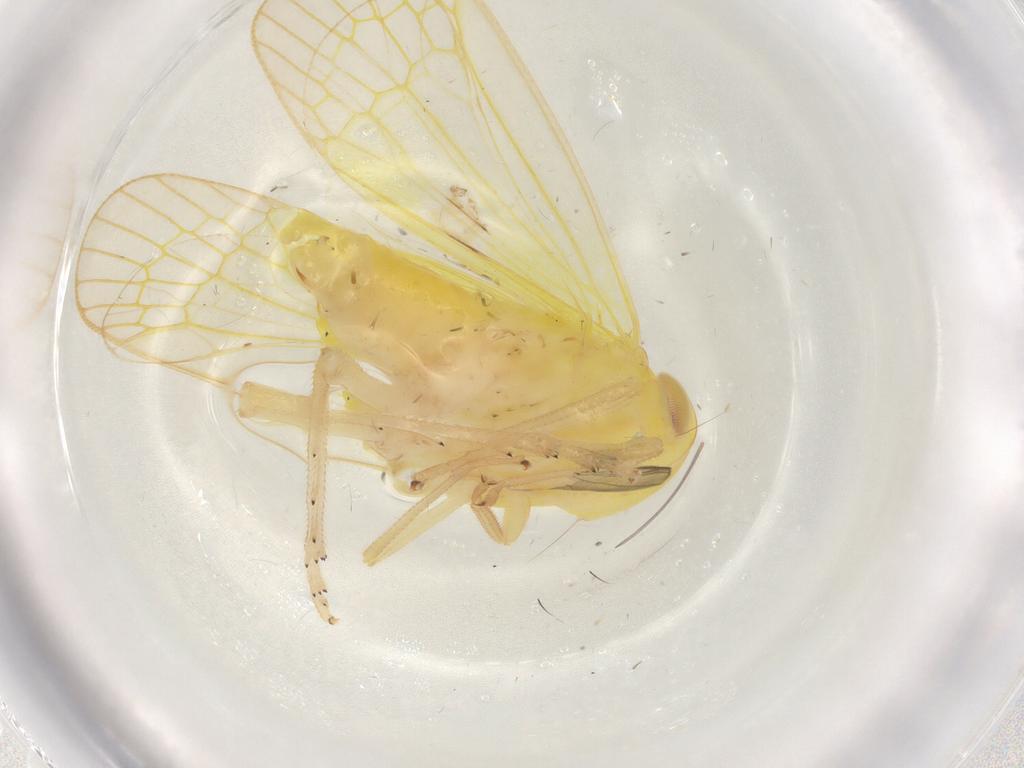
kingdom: Animalia
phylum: Arthropoda
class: Insecta
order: Hemiptera
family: Tropiduchidae
